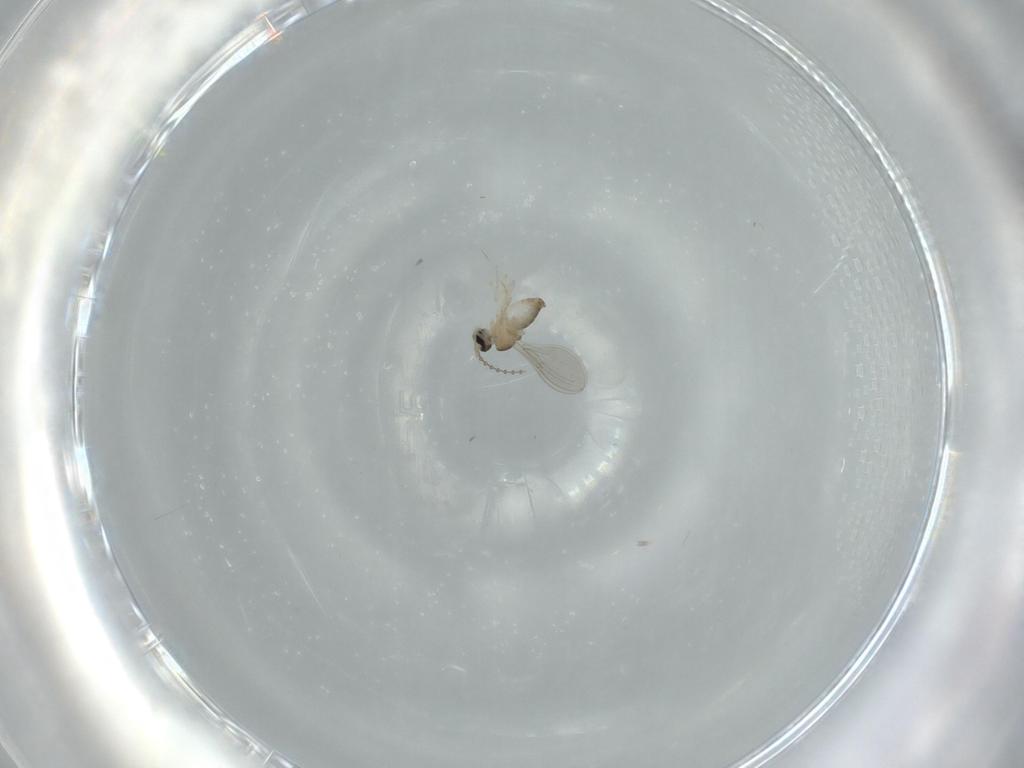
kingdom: Animalia
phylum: Arthropoda
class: Insecta
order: Diptera
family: Cecidomyiidae
